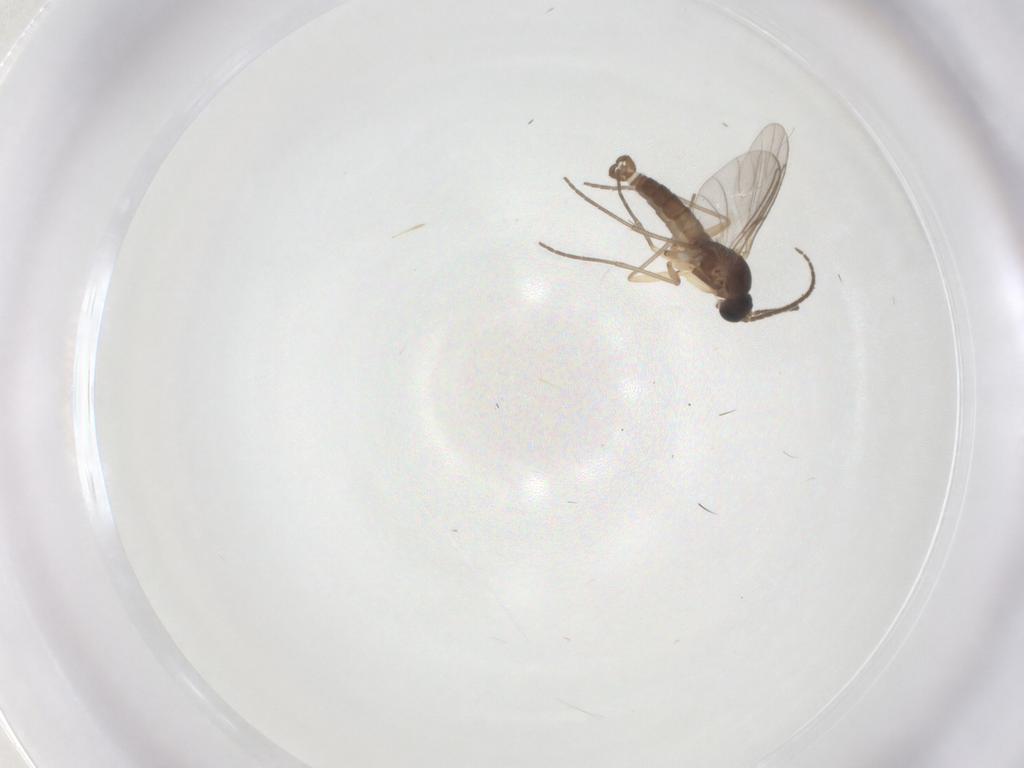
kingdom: Animalia
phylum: Arthropoda
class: Insecta
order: Diptera
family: Sciaridae
